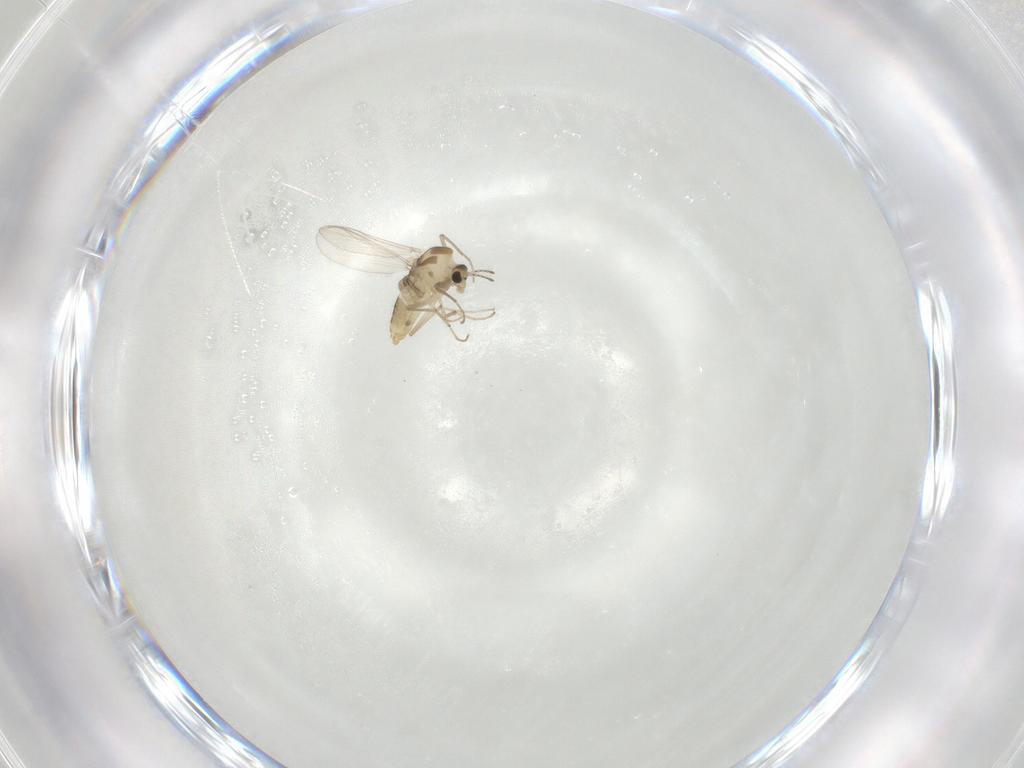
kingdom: Animalia
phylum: Arthropoda
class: Insecta
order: Diptera
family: Chironomidae
